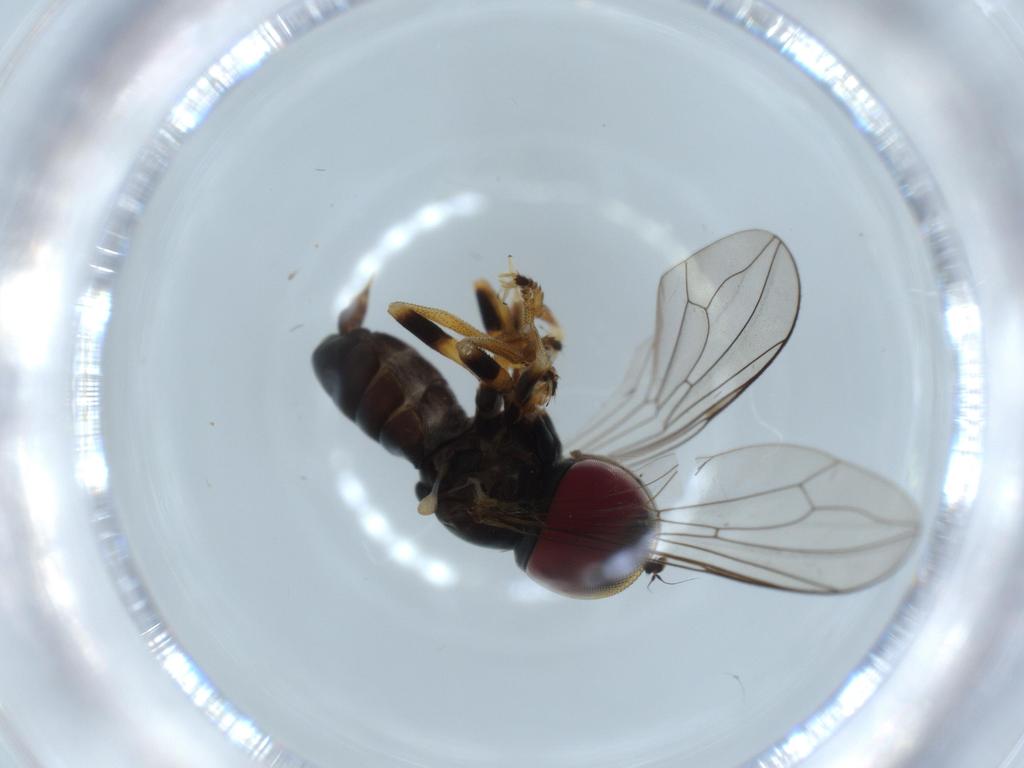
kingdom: Animalia
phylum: Arthropoda
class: Insecta
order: Diptera
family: Pipunculidae
